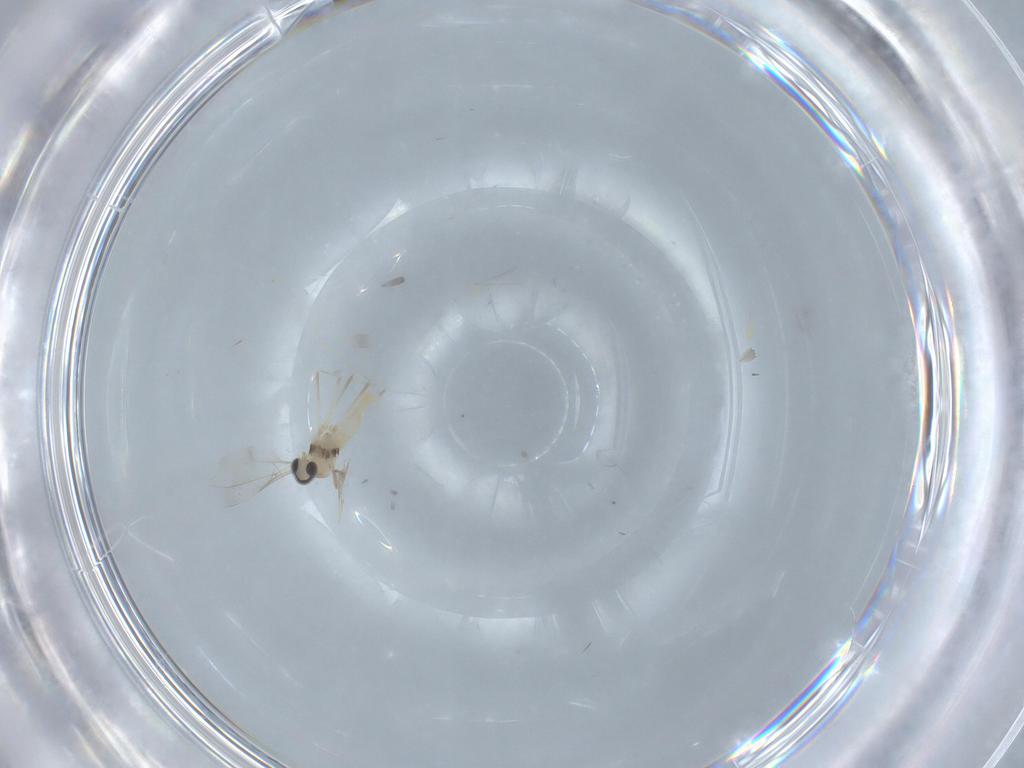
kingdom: Animalia
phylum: Arthropoda
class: Insecta
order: Diptera
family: Cecidomyiidae
